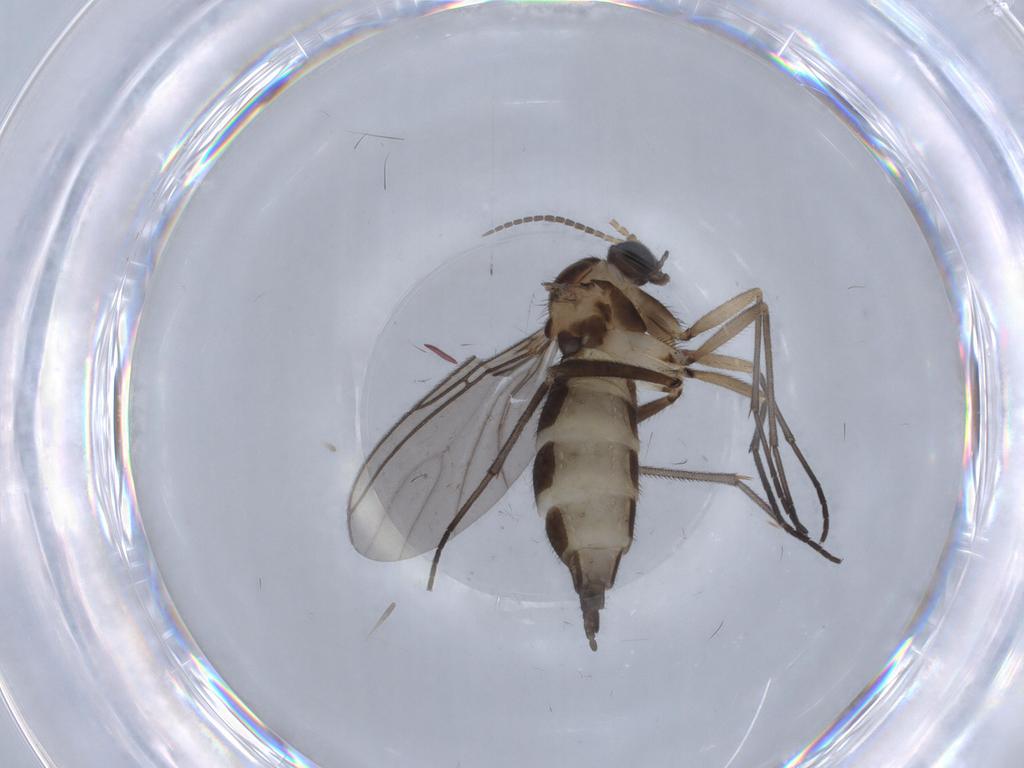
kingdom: Animalia
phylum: Arthropoda
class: Insecta
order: Diptera
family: Sciaridae
